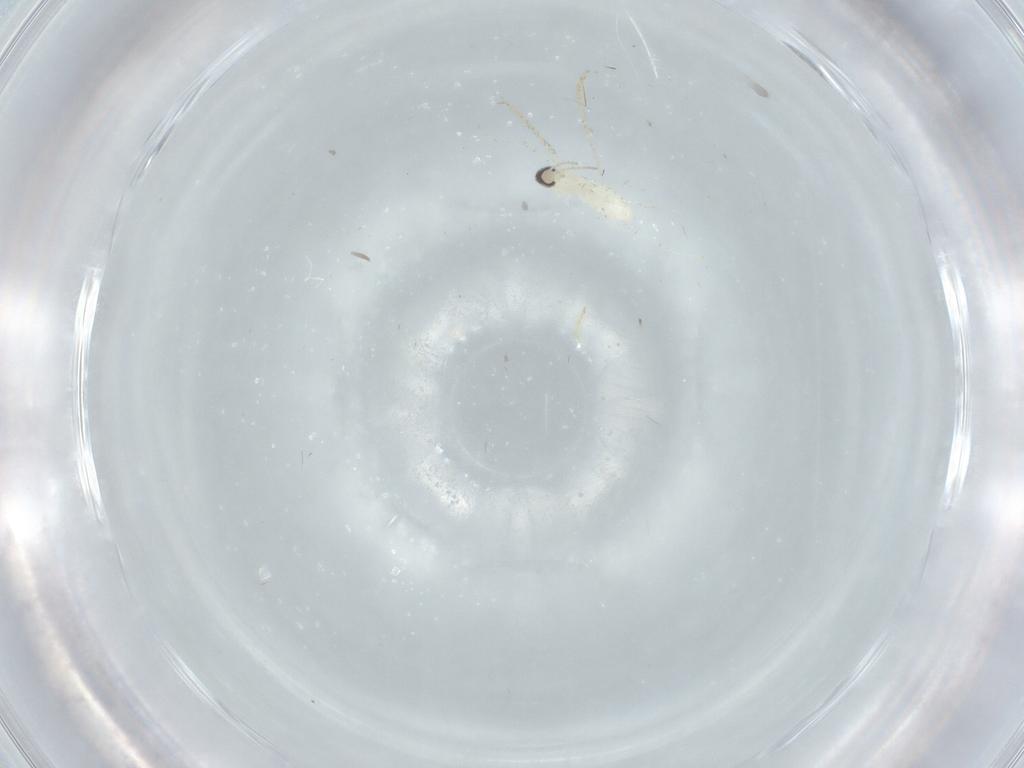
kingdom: Animalia
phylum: Arthropoda
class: Insecta
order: Diptera
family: Cecidomyiidae
